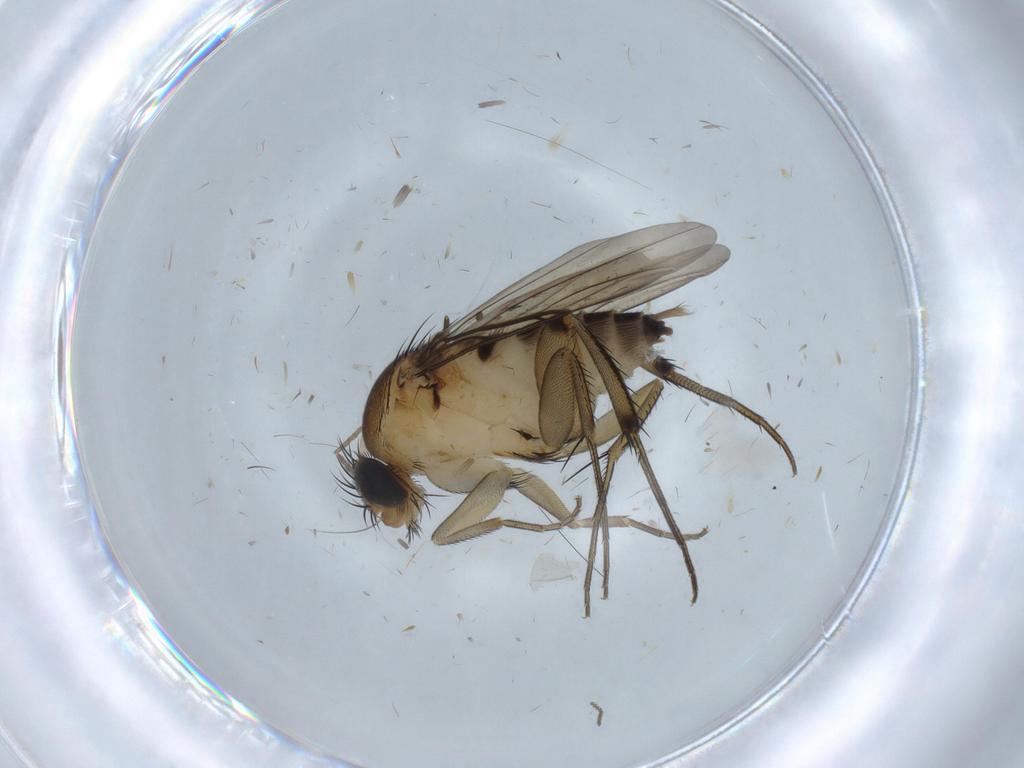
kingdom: Animalia
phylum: Arthropoda
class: Insecta
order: Diptera
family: Phoridae
